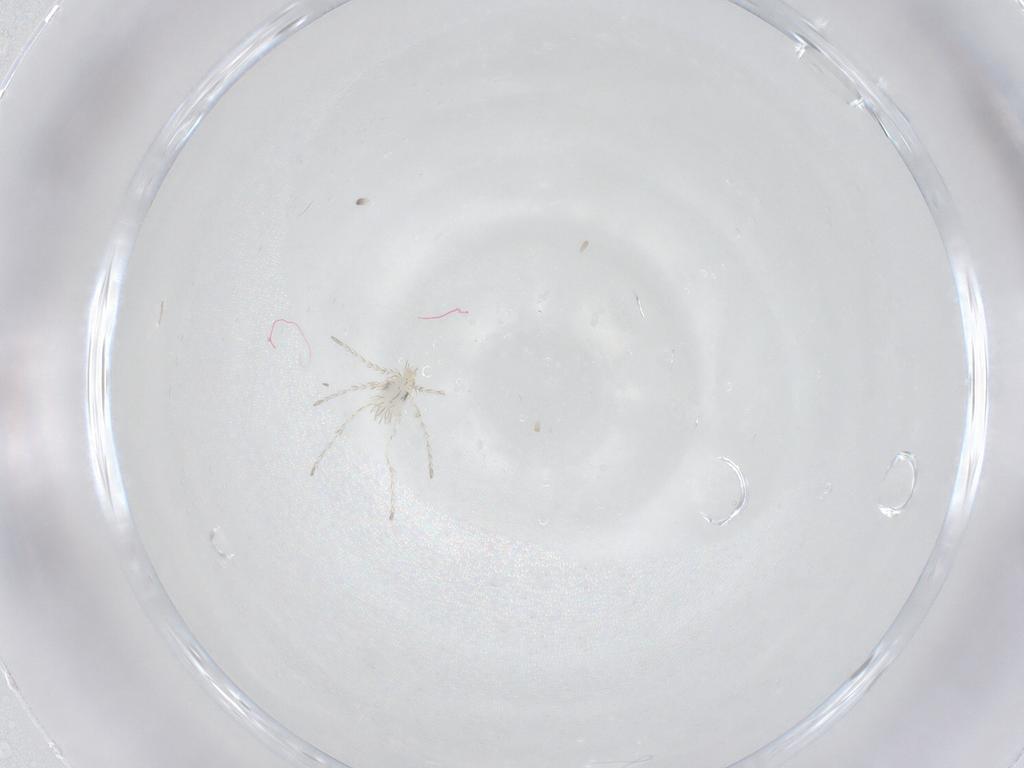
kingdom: Animalia
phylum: Arthropoda
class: Arachnida
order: Trombidiformes
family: Erythraeidae
